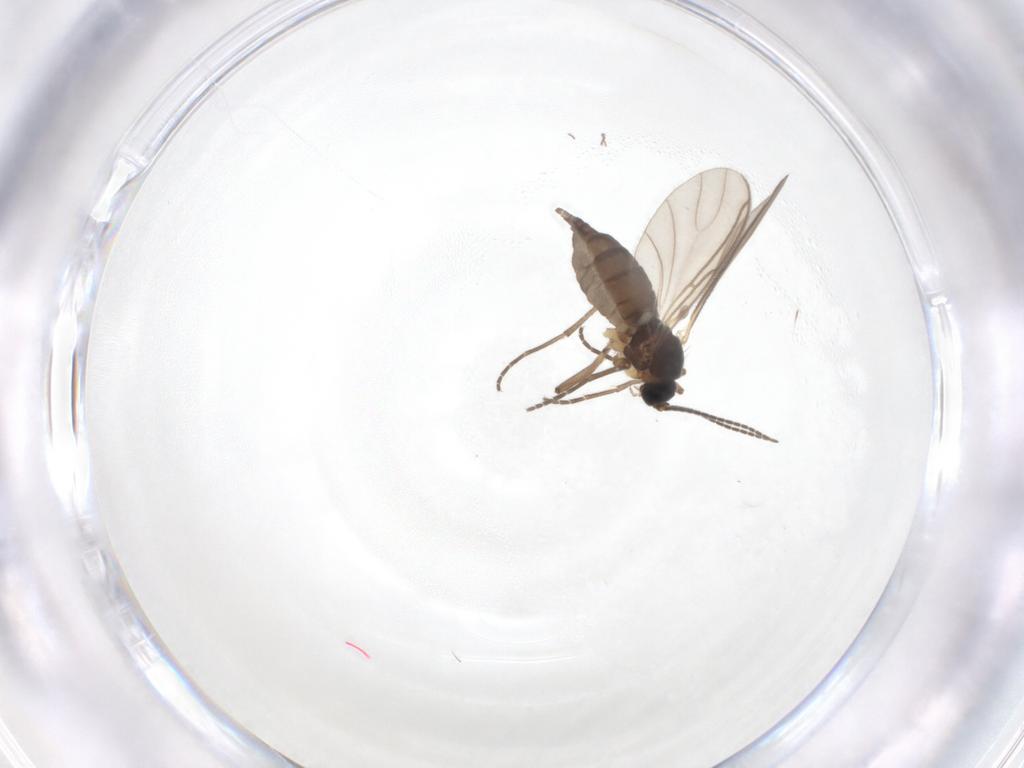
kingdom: Animalia
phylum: Arthropoda
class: Insecta
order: Diptera
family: Sciaridae
